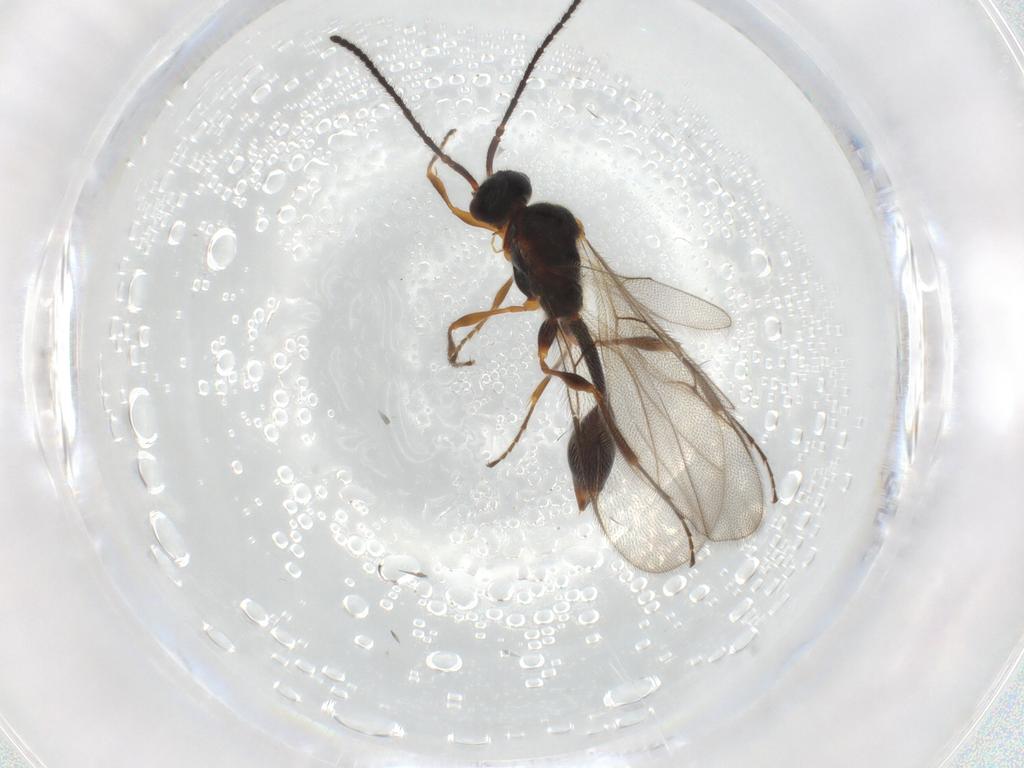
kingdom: Animalia
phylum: Arthropoda
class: Insecta
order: Hymenoptera
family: Diapriidae
